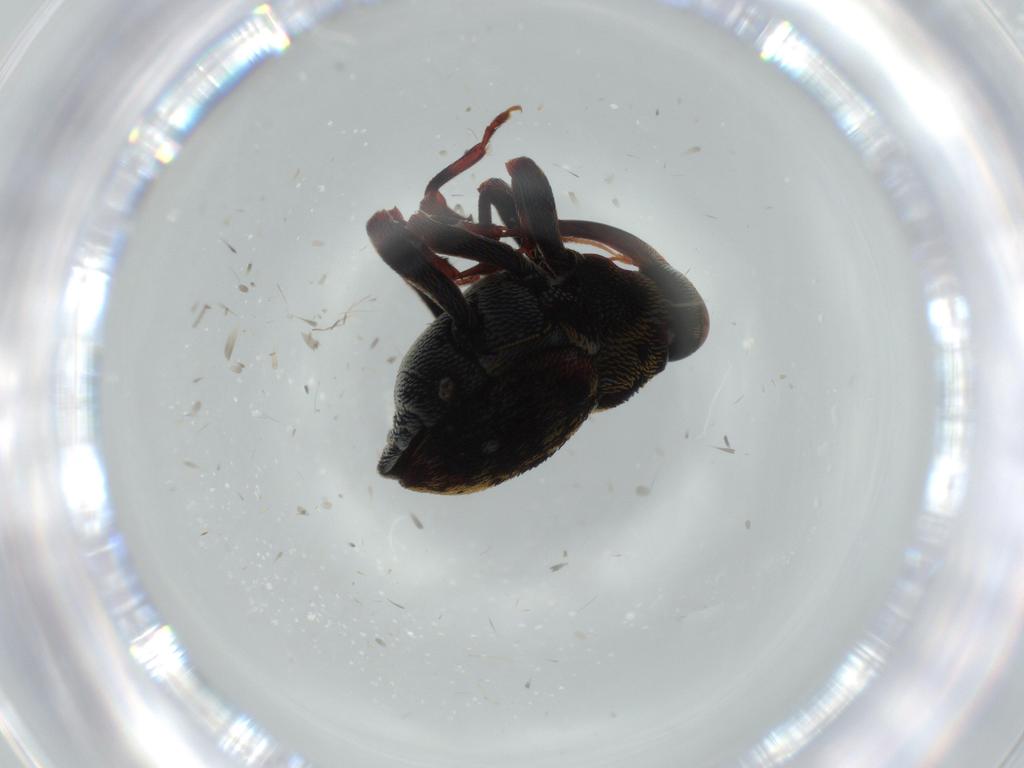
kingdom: Animalia
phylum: Arthropoda
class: Insecta
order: Coleoptera
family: Curculionidae
